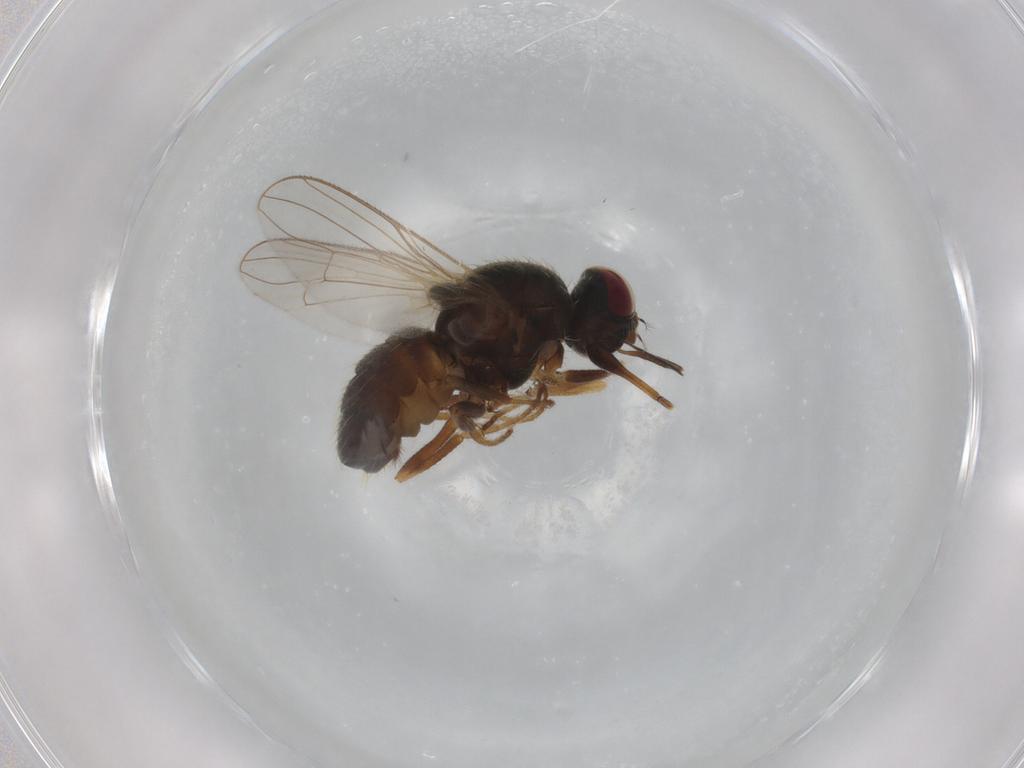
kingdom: Animalia
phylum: Arthropoda
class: Insecta
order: Diptera
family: Muscidae
